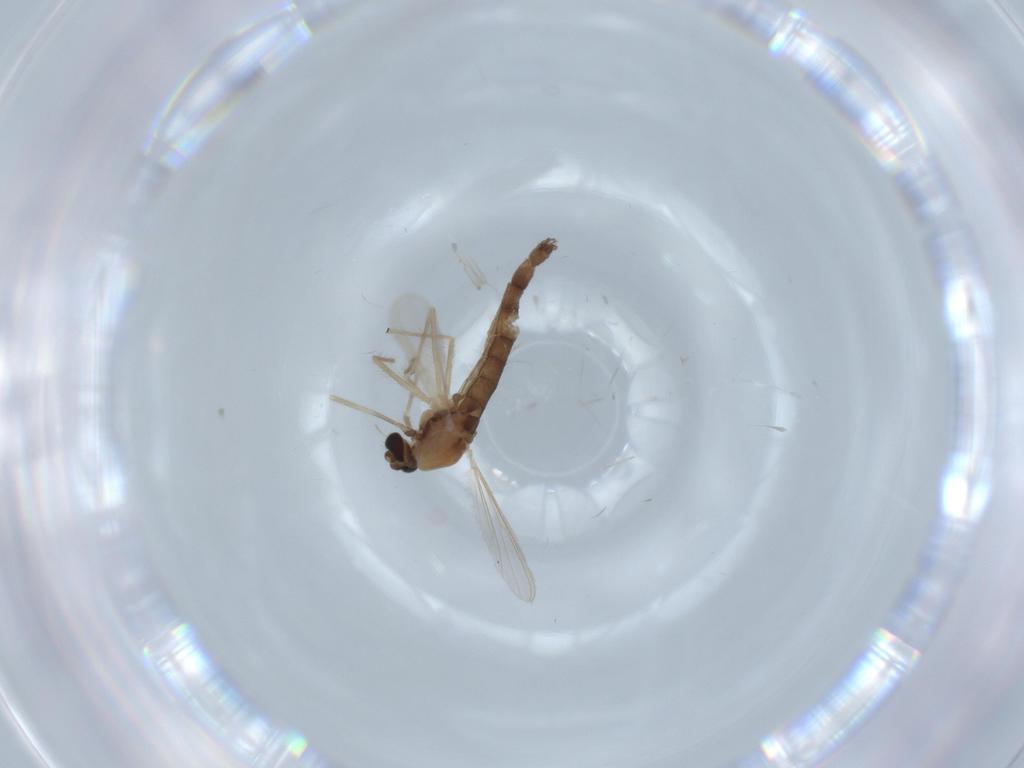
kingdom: Animalia
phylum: Arthropoda
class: Insecta
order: Diptera
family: Chironomidae
